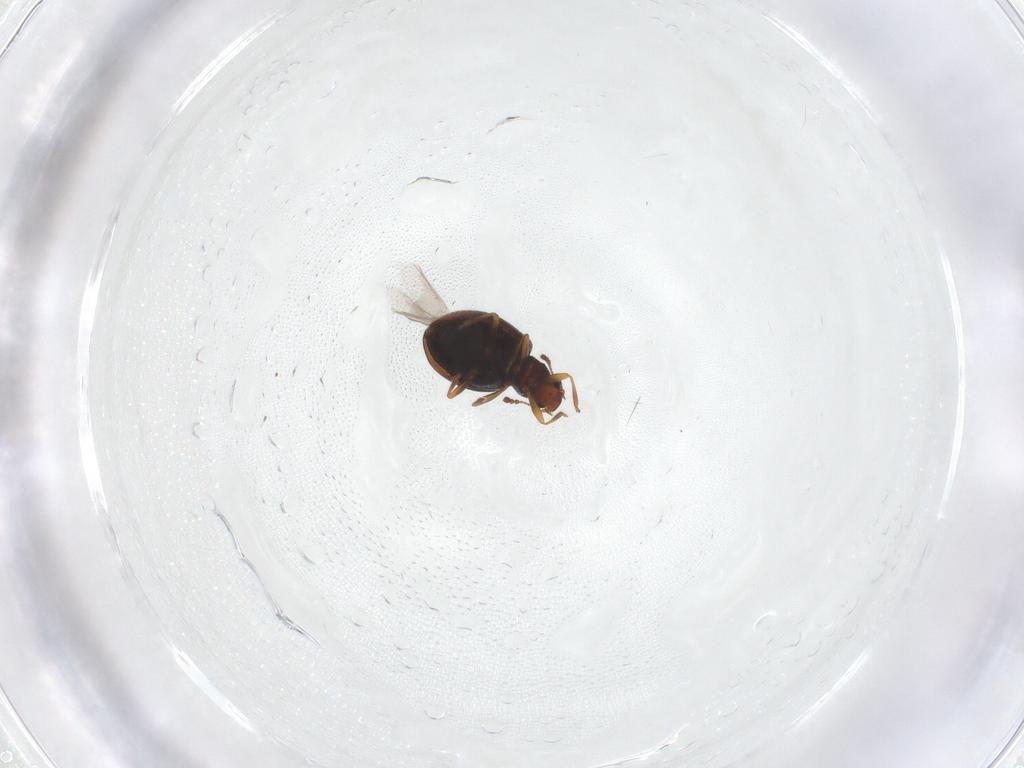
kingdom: Animalia
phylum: Arthropoda
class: Insecta
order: Coleoptera
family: Latridiidae
